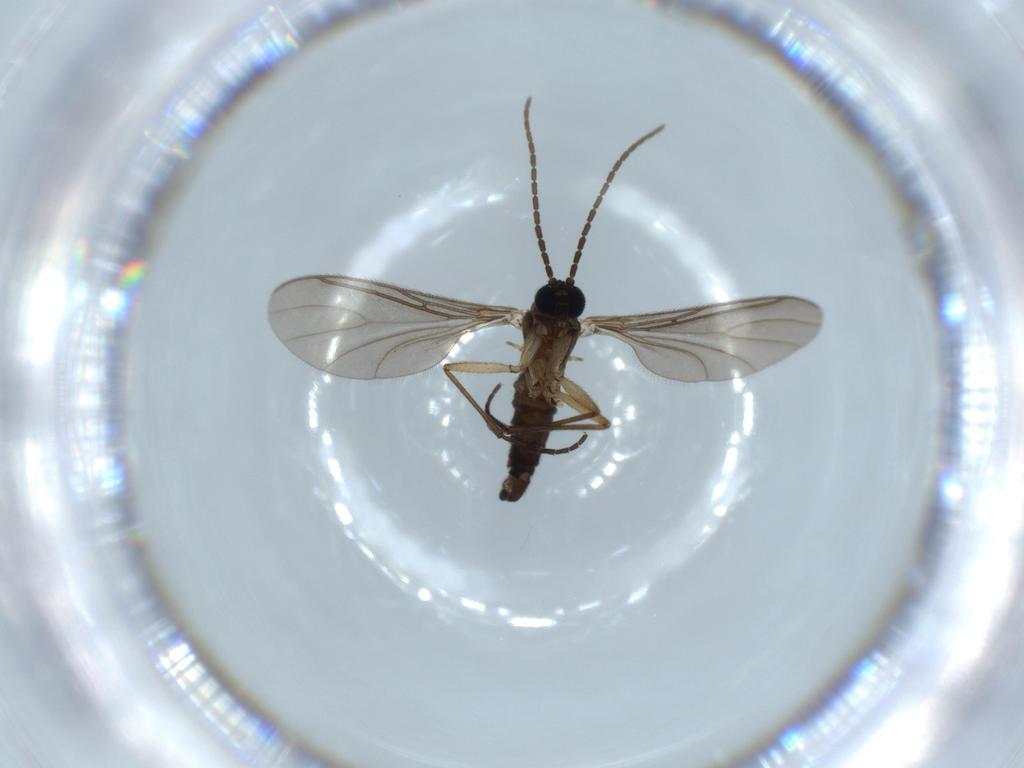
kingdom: Animalia
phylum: Arthropoda
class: Insecta
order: Diptera
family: Sciaridae
